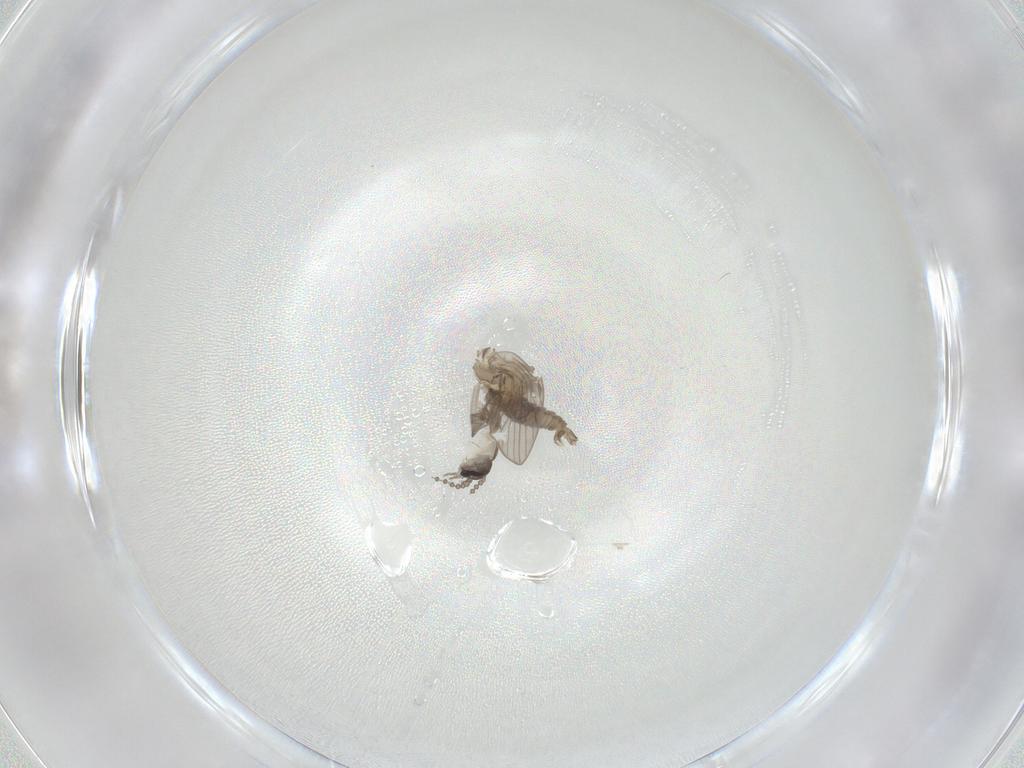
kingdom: Animalia
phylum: Arthropoda
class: Insecta
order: Diptera
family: Psychodidae
